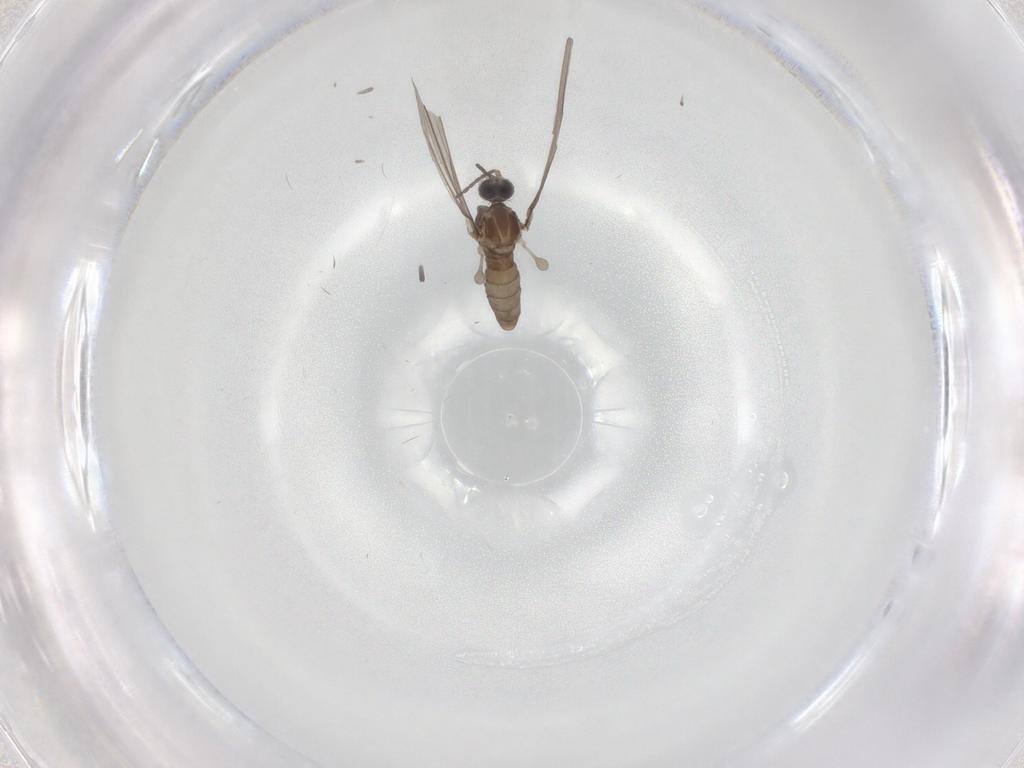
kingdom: Animalia
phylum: Arthropoda
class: Insecta
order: Diptera
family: Cecidomyiidae
